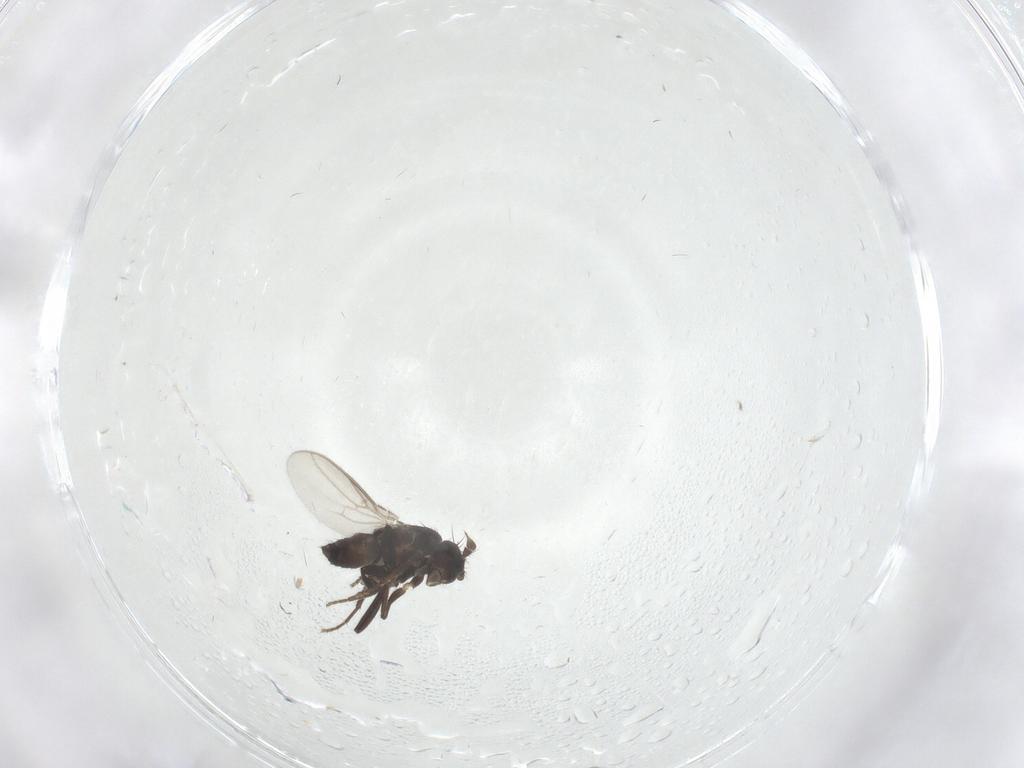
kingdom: Animalia
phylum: Arthropoda
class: Insecta
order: Diptera
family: Sphaeroceridae
